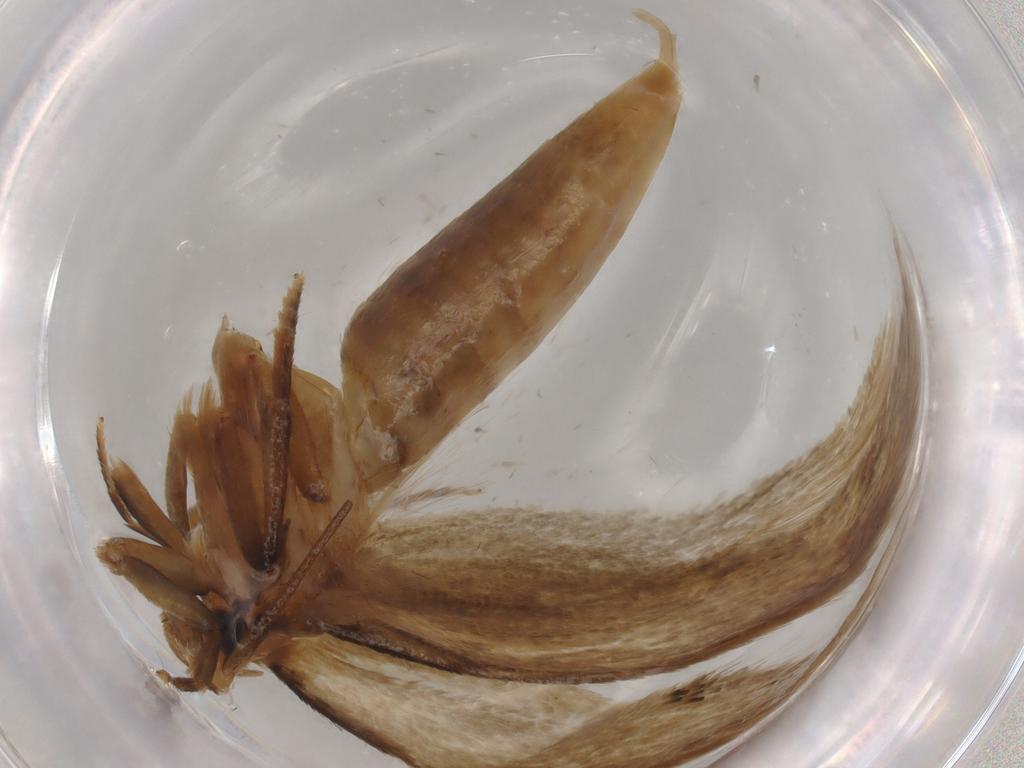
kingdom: Animalia
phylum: Arthropoda
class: Insecta
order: Lepidoptera
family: Tineidae
